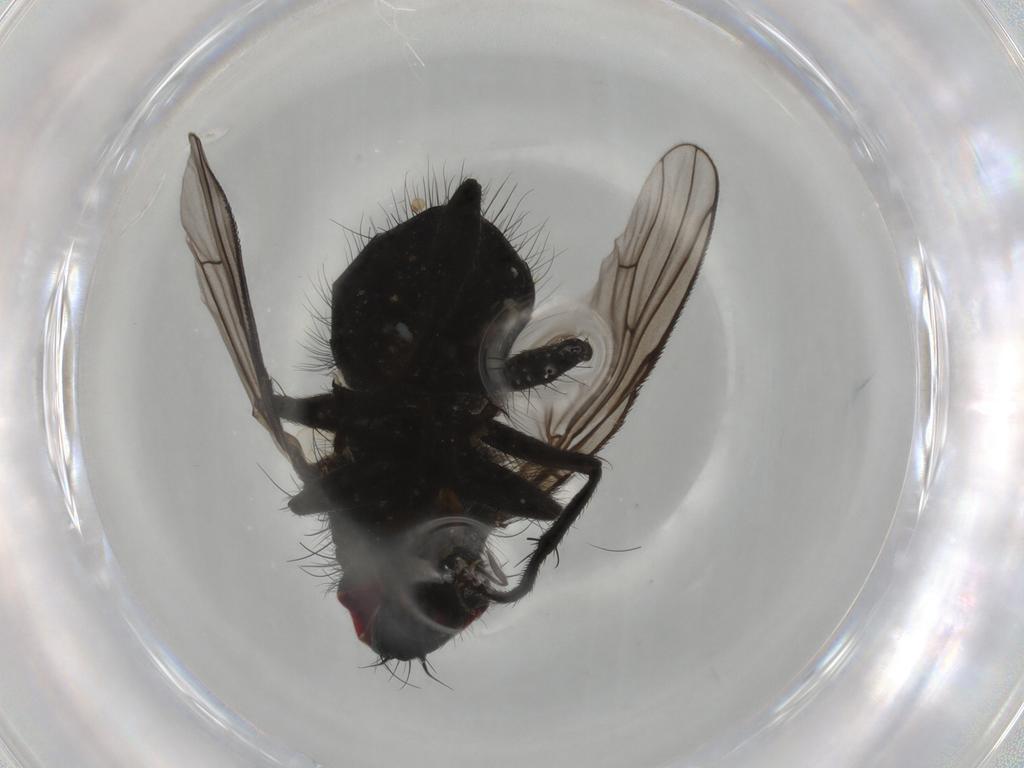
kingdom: Animalia
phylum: Arthropoda
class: Insecta
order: Diptera
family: Muscidae
